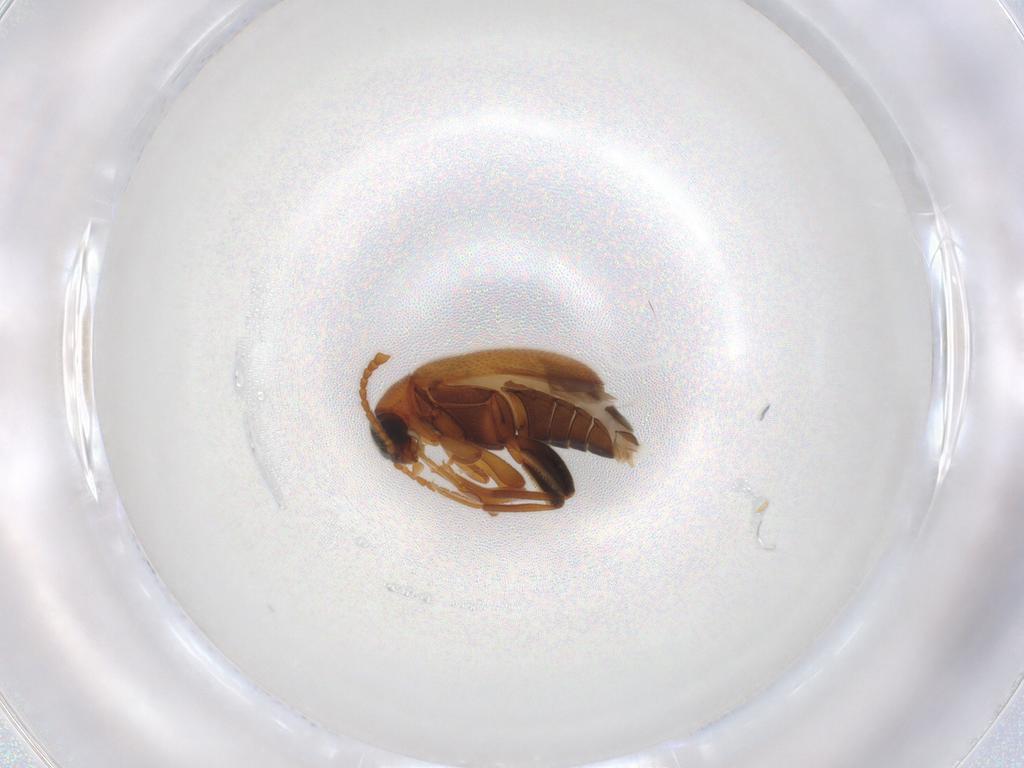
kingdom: Animalia
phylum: Arthropoda
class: Insecta
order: Coleoptera
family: Aderidae
